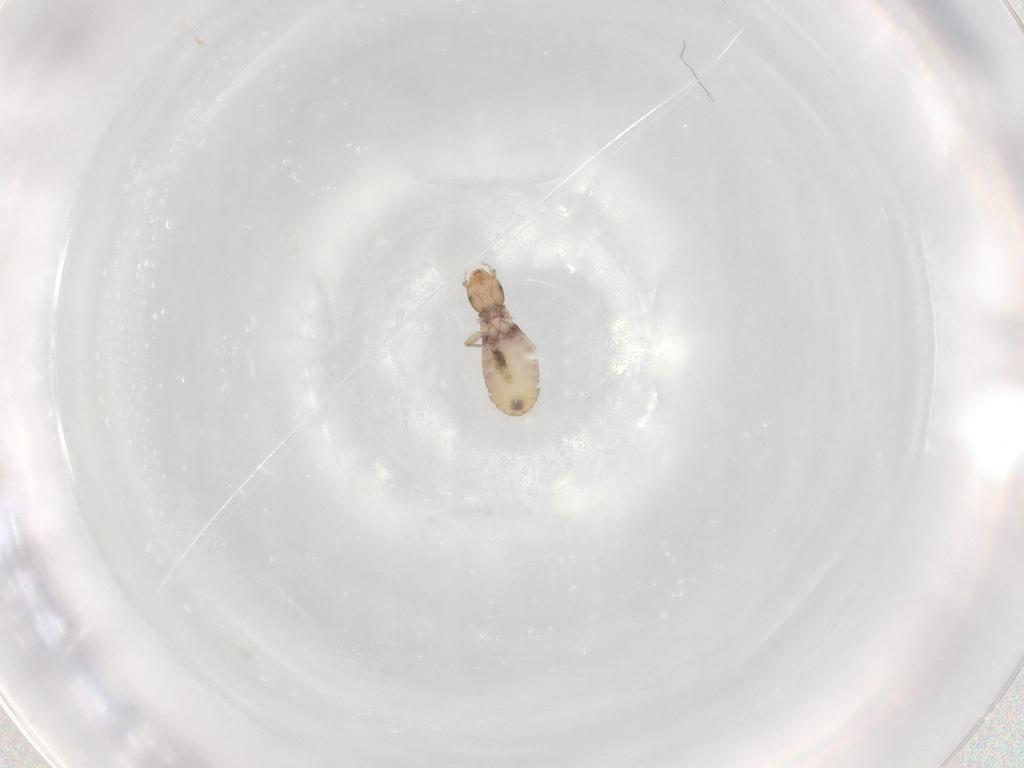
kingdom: Animalia
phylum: Arthropoda
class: Insecta
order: Psocodea
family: Liposcelididae
